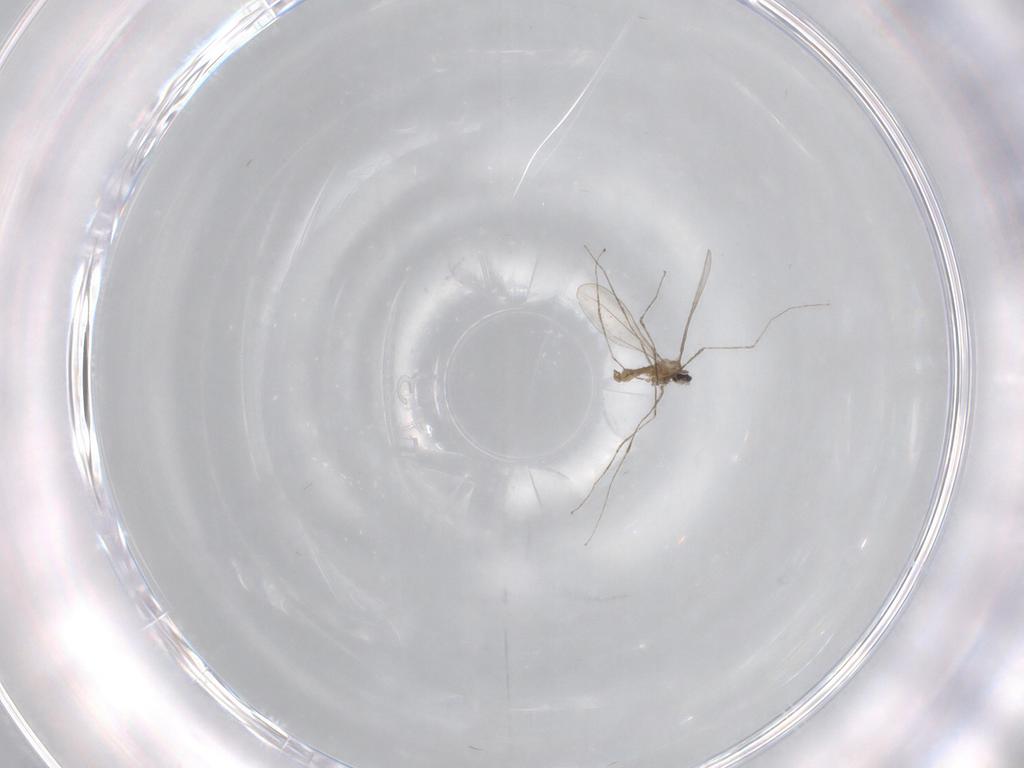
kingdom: Animalia
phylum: Arthropoda
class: Insecta
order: Diptera
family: Cecidomyiidae
